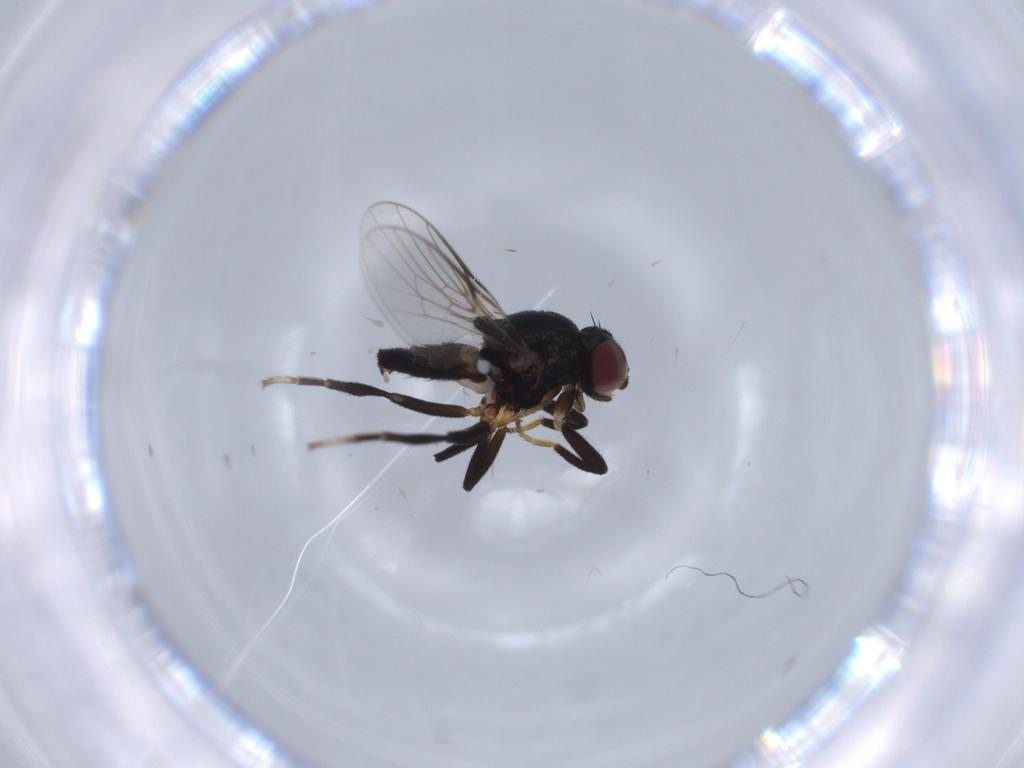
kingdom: Animalia
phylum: Arthropoda
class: Insecta
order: Diptera
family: Chloropidae
